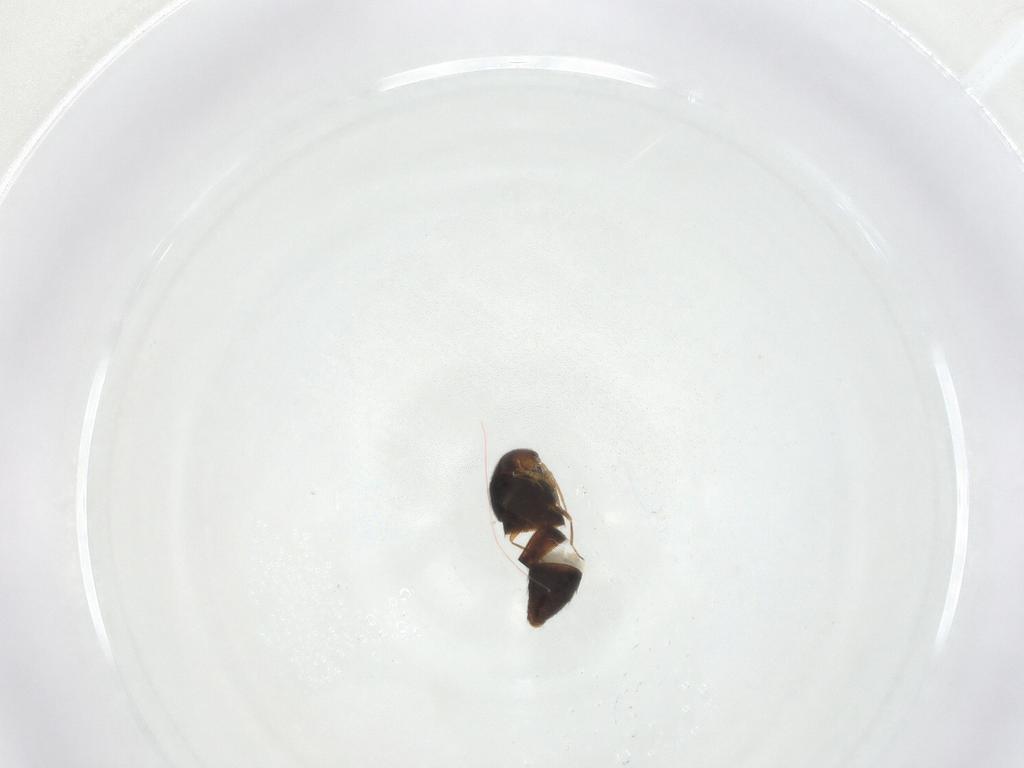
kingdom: Animalia
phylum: Arthropoda
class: Insecta
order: Coleoptera
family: Staphylinidae
